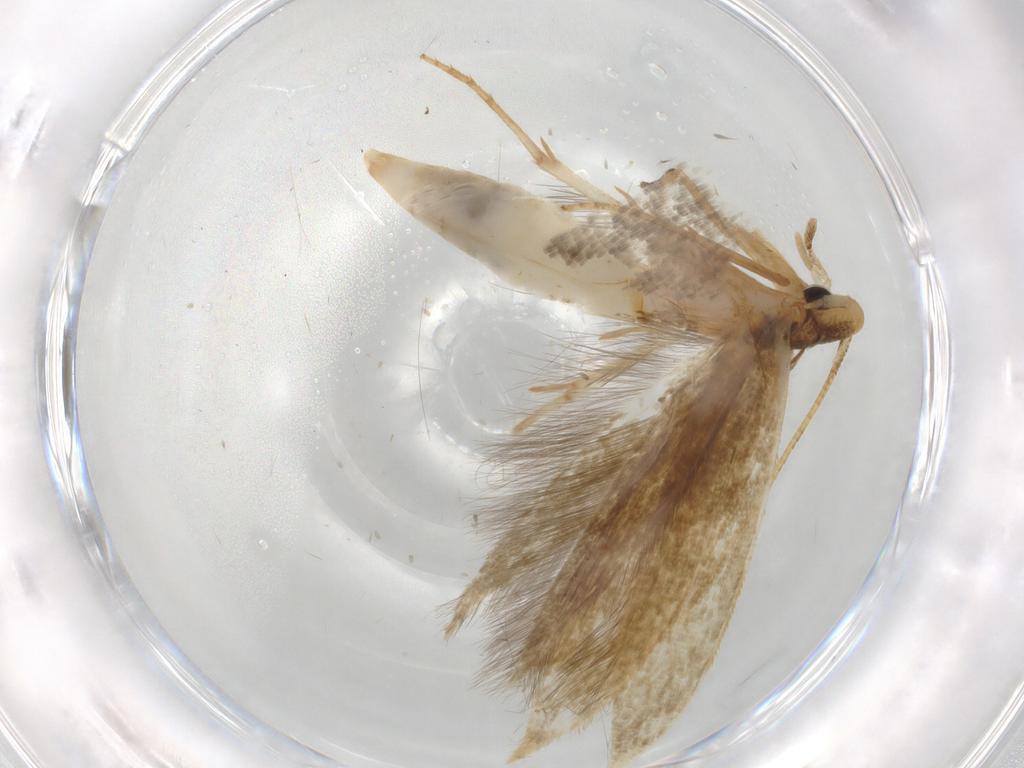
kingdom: Animalia
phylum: Arthropoda
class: Insecta
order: Lepidoptera
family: Tineidae
